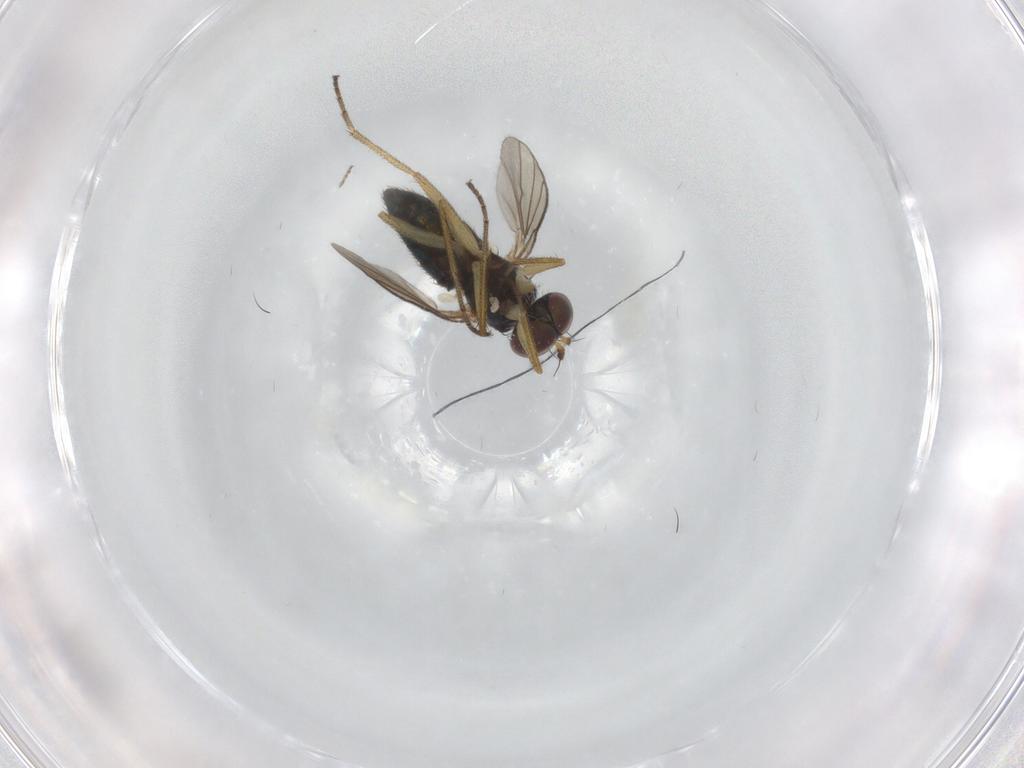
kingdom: Animalia
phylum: Arthropoda
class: Insecta
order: Diptera
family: Dolichopodidae
